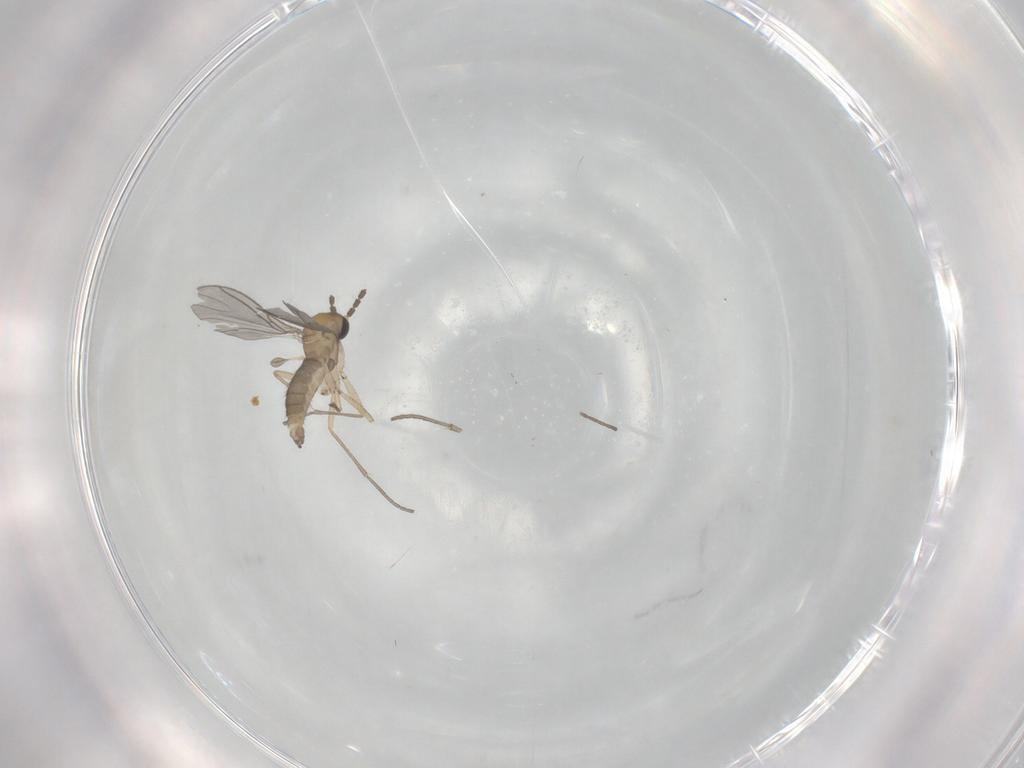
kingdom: Animalia
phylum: Arthropoda
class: Insecta
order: Diptera
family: Sciaridae
